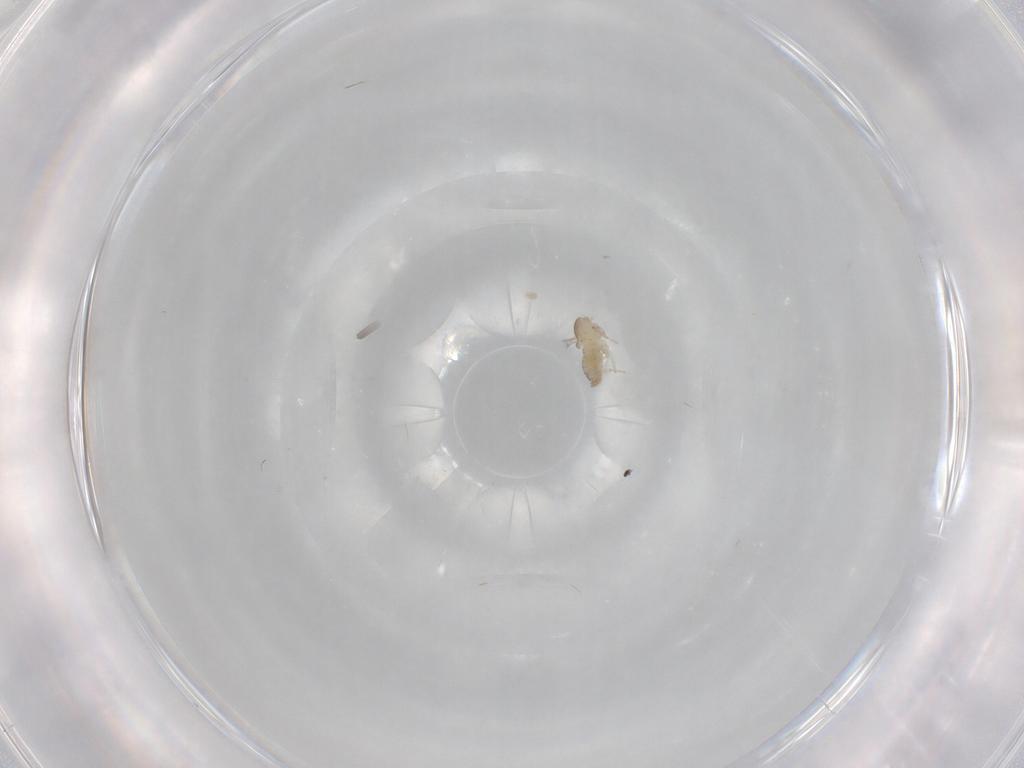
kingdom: Animalia
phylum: Arthropoda
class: Insecta
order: Diptera
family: Cecidomyiidae
